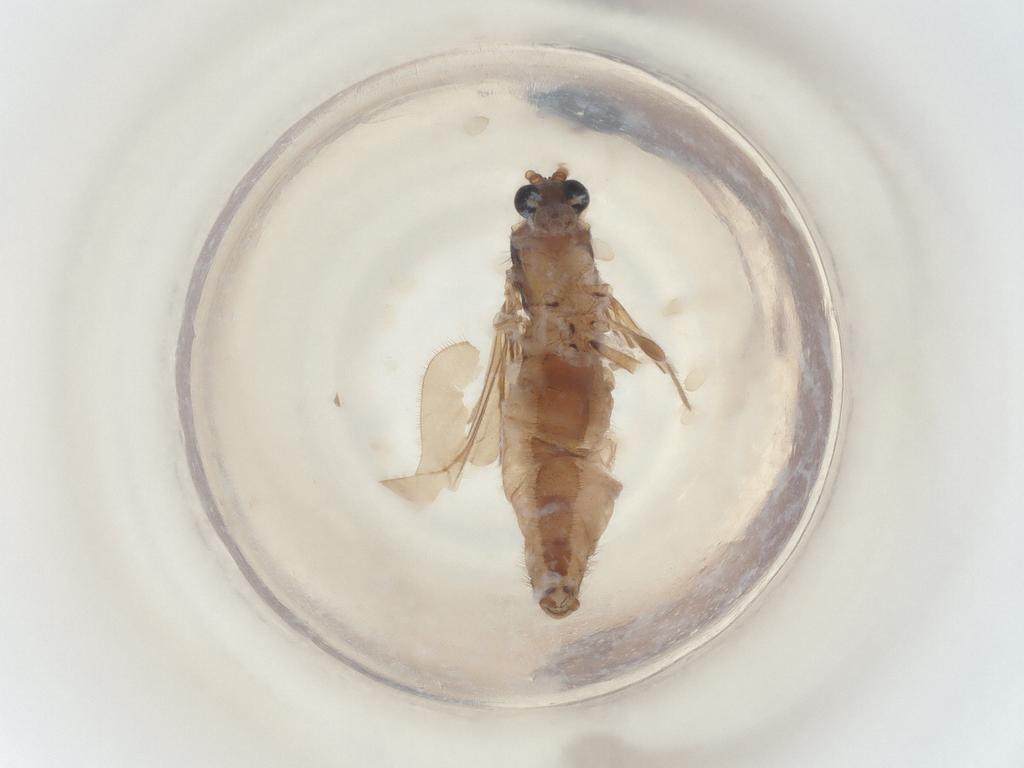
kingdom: Animalia
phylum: Arthropoda
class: Insecta
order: Diptera
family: Sciaridae
